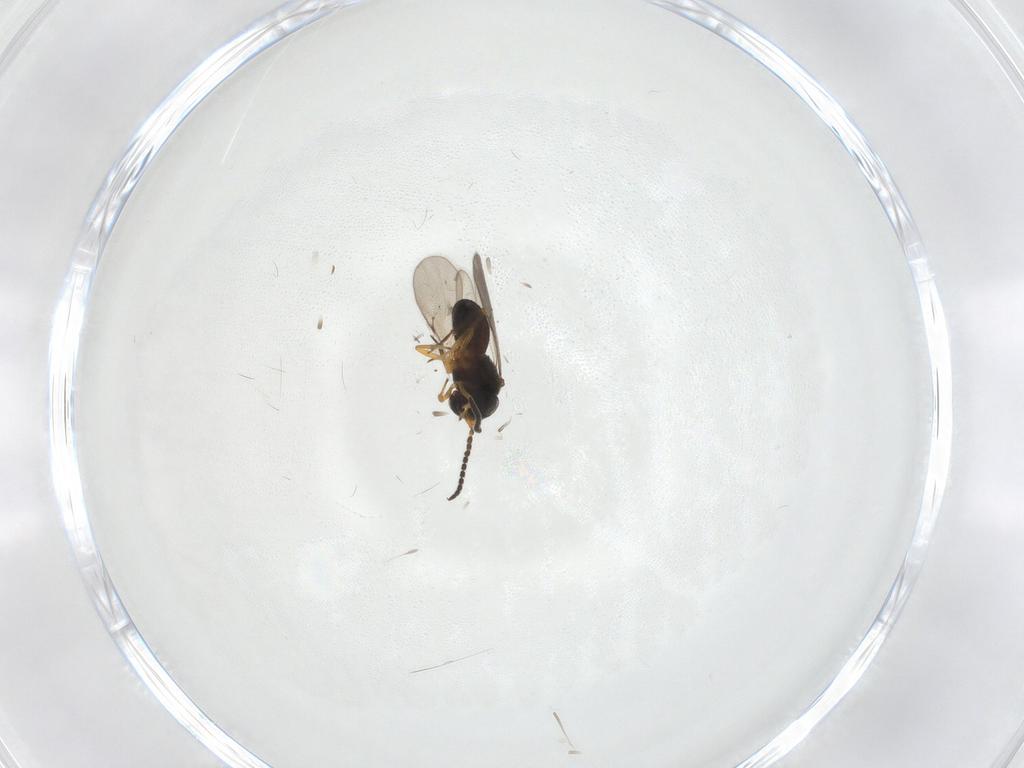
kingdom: Animalia
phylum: Arthropoda
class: Insecta
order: Hymenoptera
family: Scelionidae
